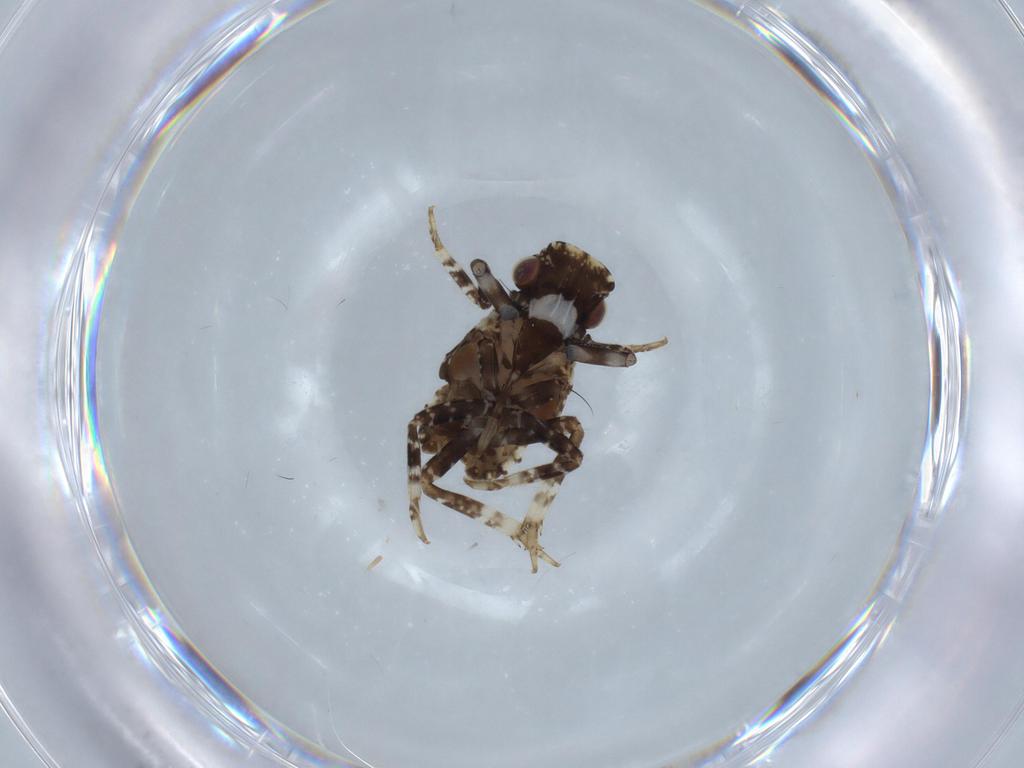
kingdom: Animalia
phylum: Arthropoda
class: Insecta
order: Hemiptera
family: Fulgoridae
